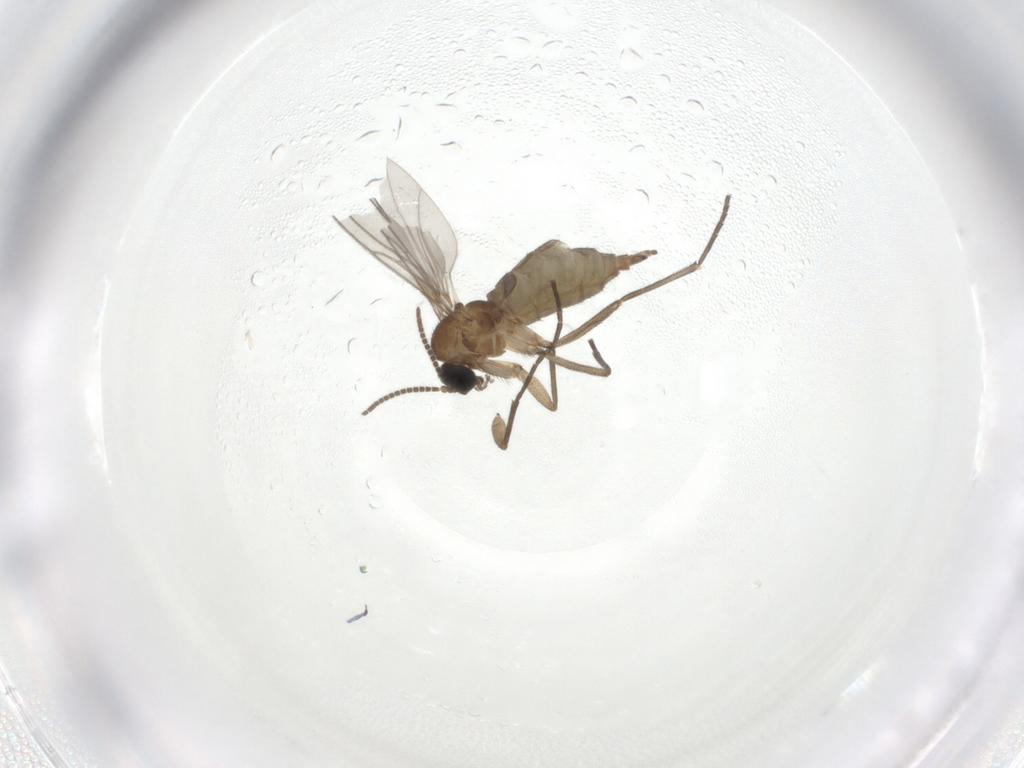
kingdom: Animalia
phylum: Arthropoda
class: Insecta
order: Diptera
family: Sciaridae
